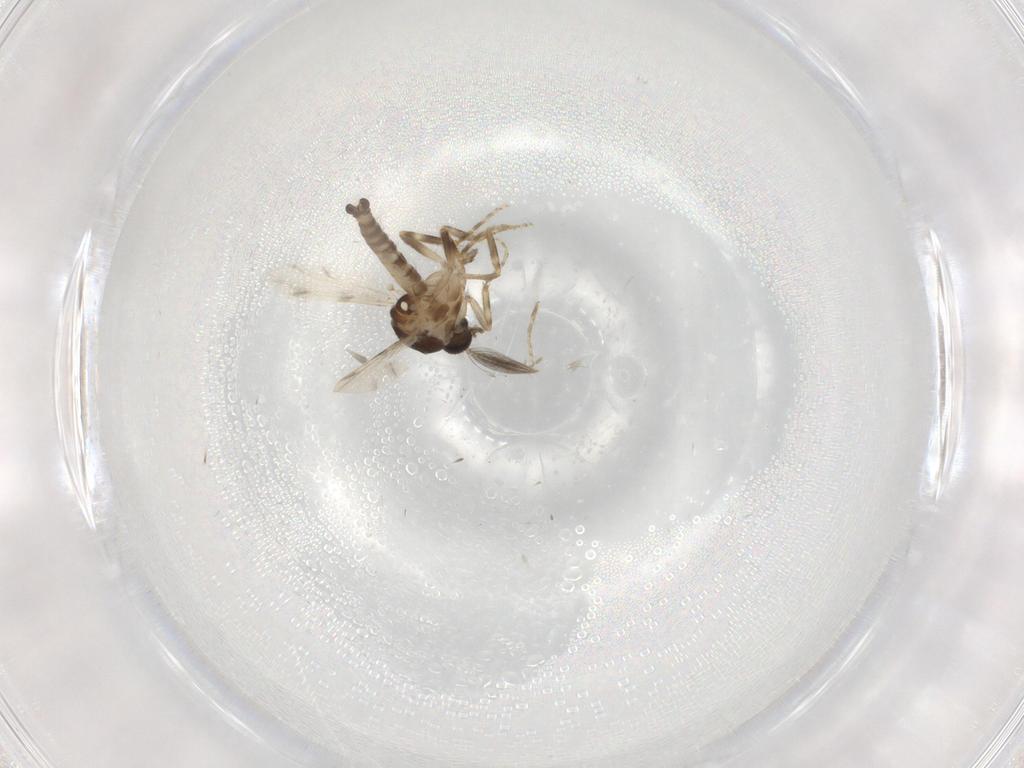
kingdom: Animalia
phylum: Arthropoda
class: Insecta
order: Diptera
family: Ceratopogonidae
